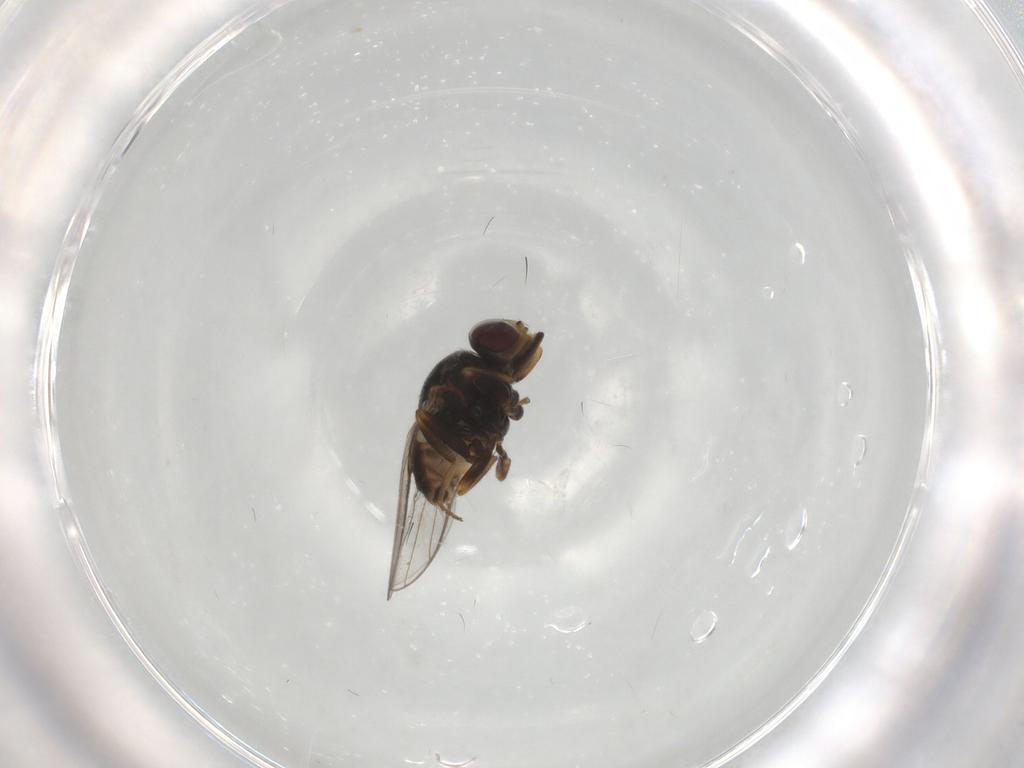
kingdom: Animalia
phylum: Arthropoda
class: Insecta
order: Diptera
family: Chloropidae
